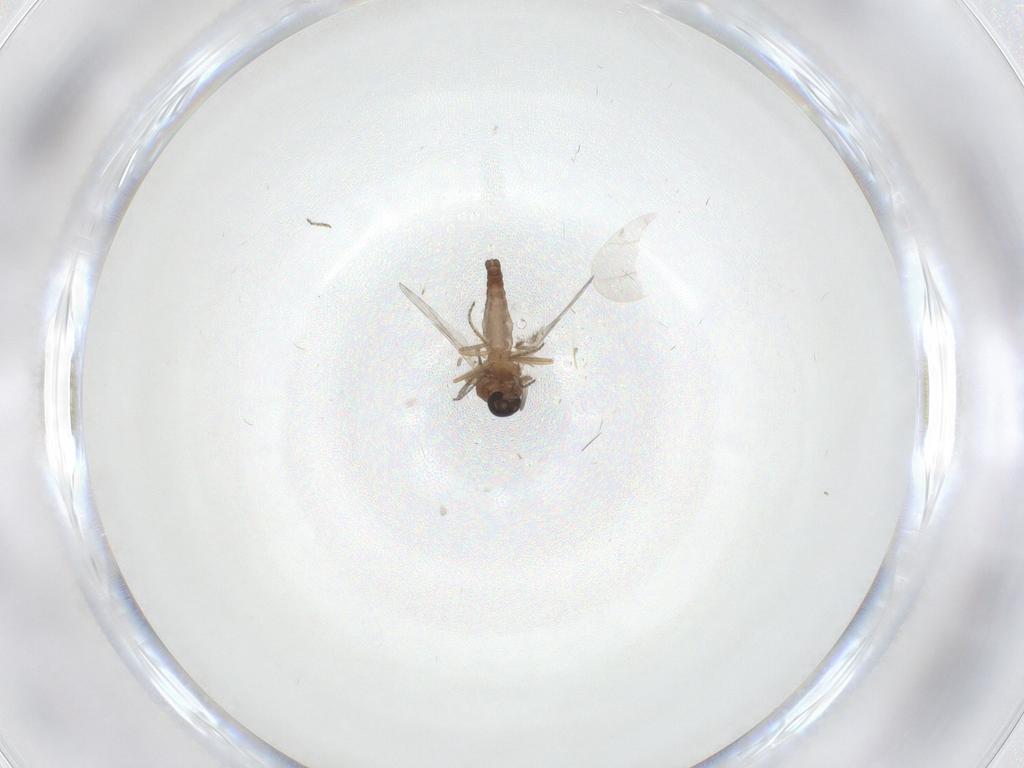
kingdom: Animalia
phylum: Arthropoda
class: Insecta
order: Diptera
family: Ceratopogonidae
